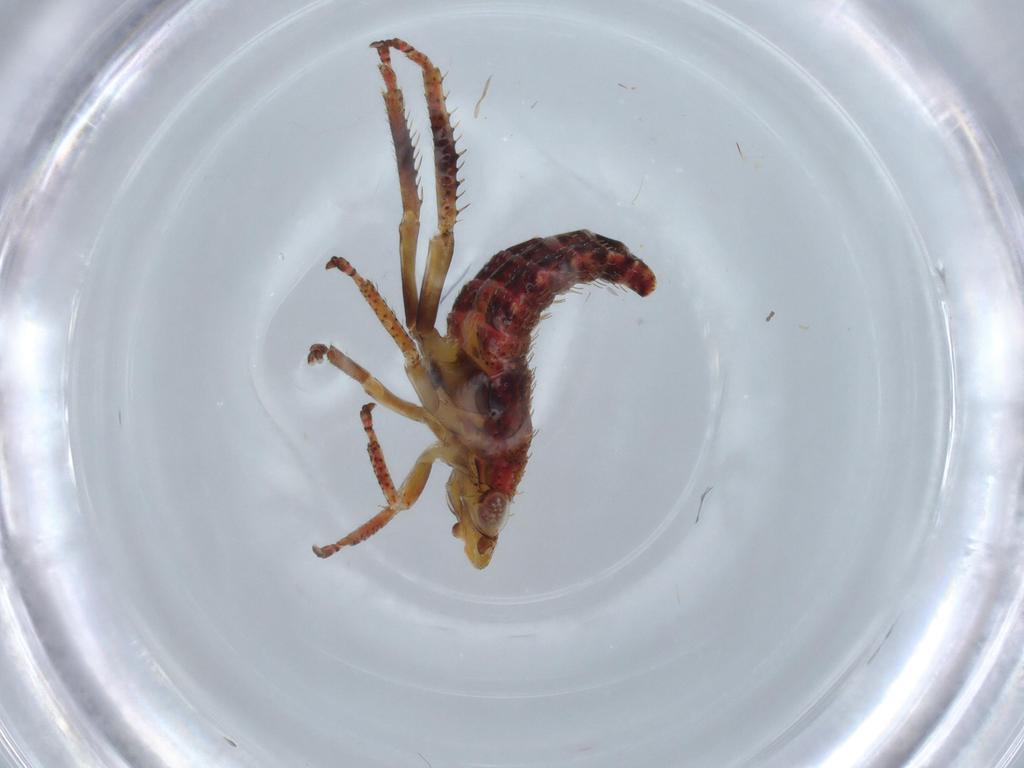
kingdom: Animalia
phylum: Arthropoda
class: Insecta
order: Hemiptera
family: Cicadellidae
